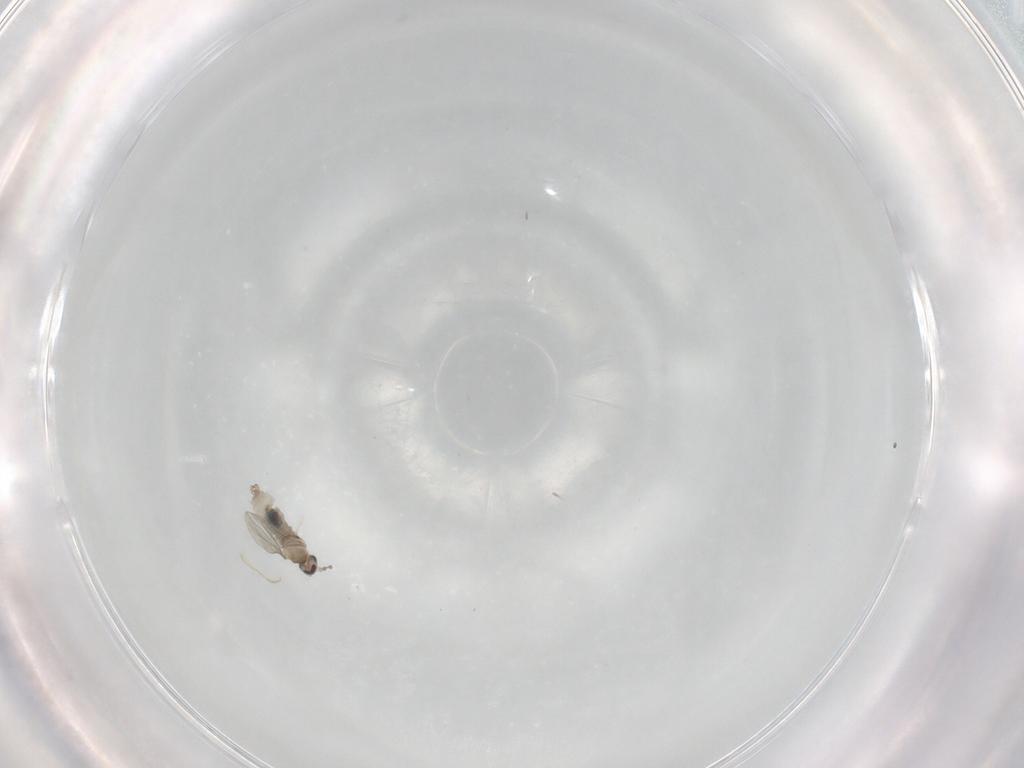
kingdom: Animalia
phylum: Arthropoda
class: Insecta
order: Diptera
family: Cecidomyiidae
